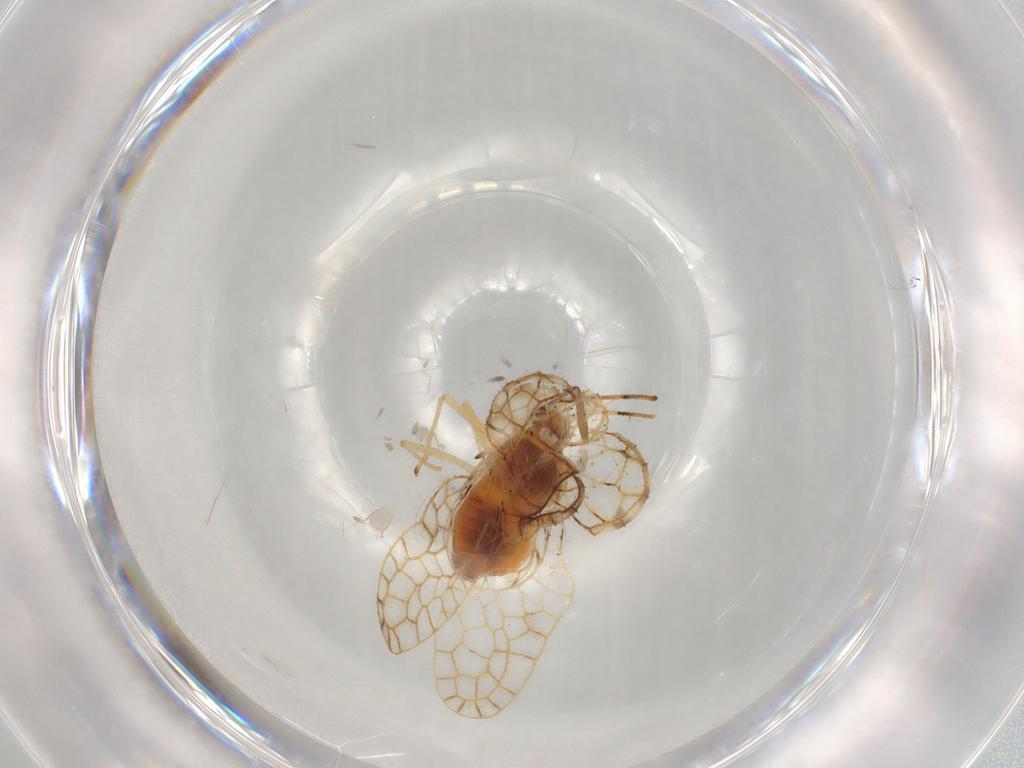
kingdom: Animalia
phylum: Arthropoda
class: Insecta
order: Hemiptera
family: Tingidae
